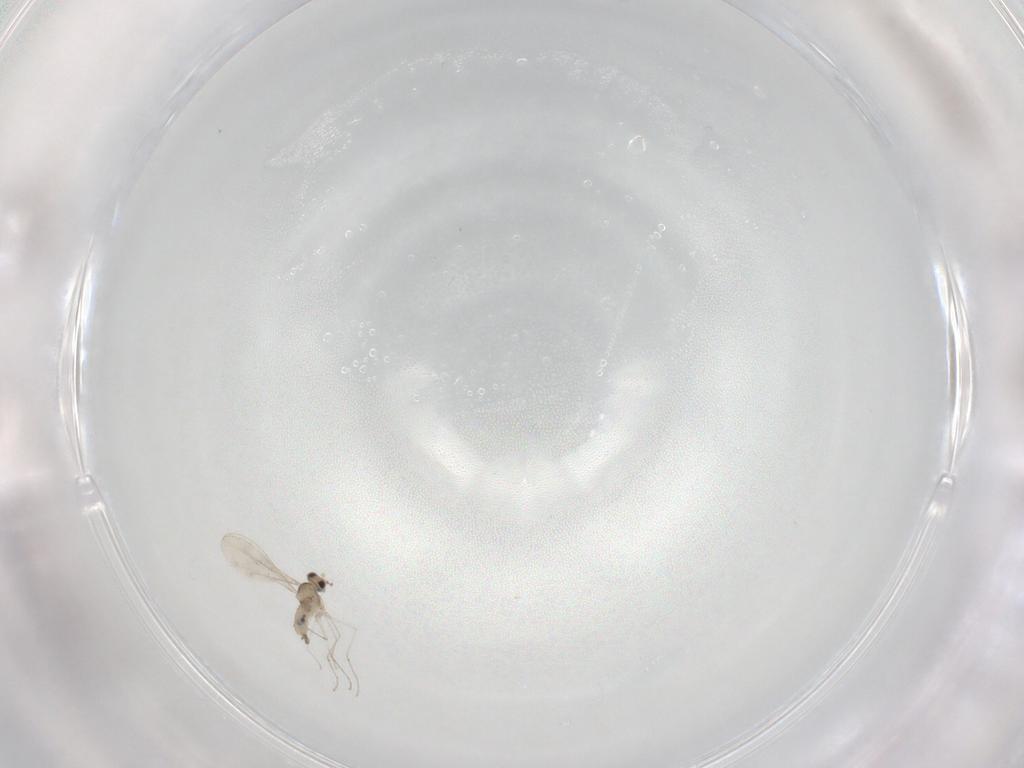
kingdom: Animalia
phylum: Arthropoda
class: Insecta
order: Diptera
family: Cecidomyiidae
